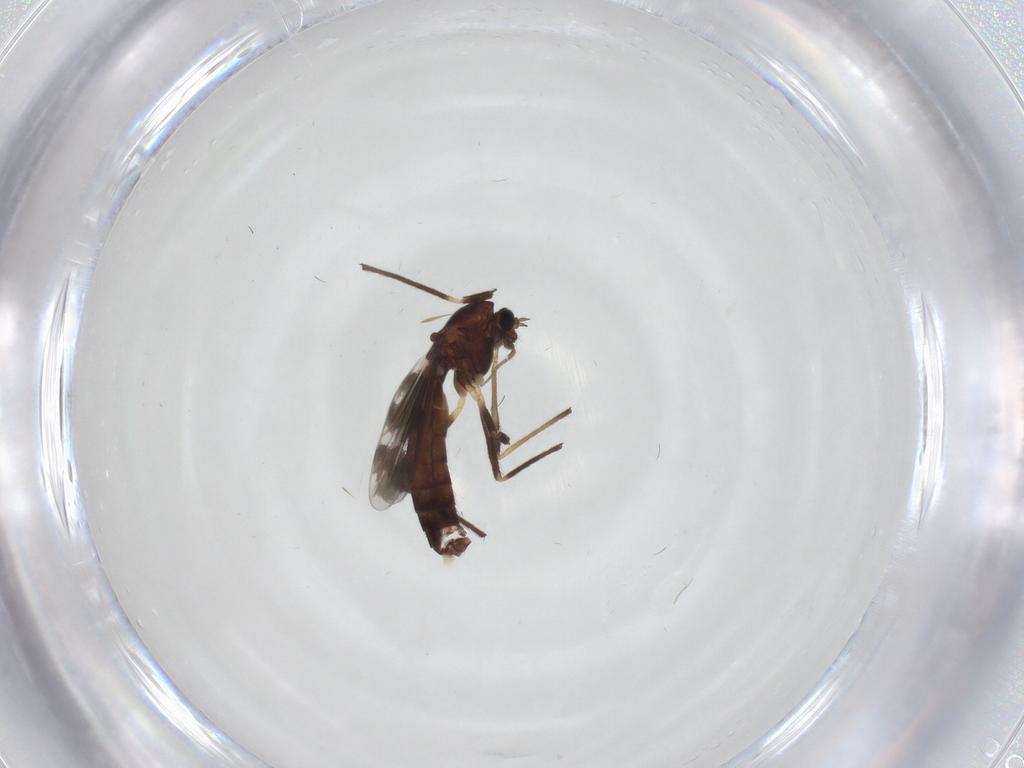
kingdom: Animalia
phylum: Arthropoda
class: Insecta
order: Diptera
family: Chironomidae
